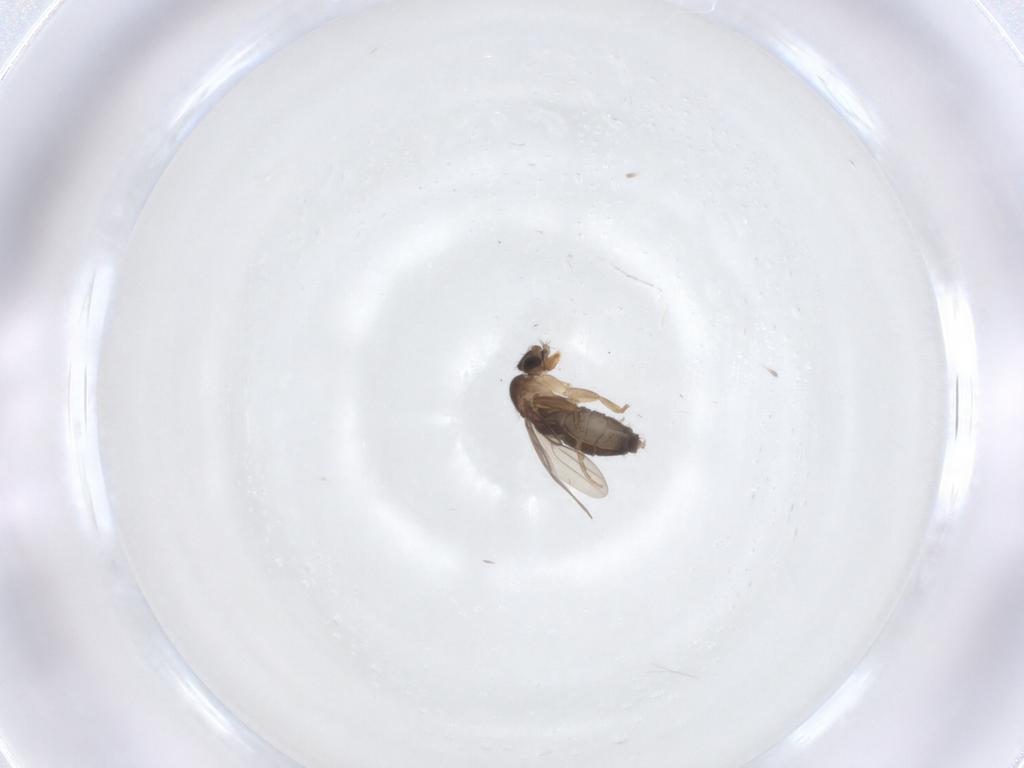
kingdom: Animalia
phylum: Arthropoda
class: Insecta
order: Diptera
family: Phoridae
